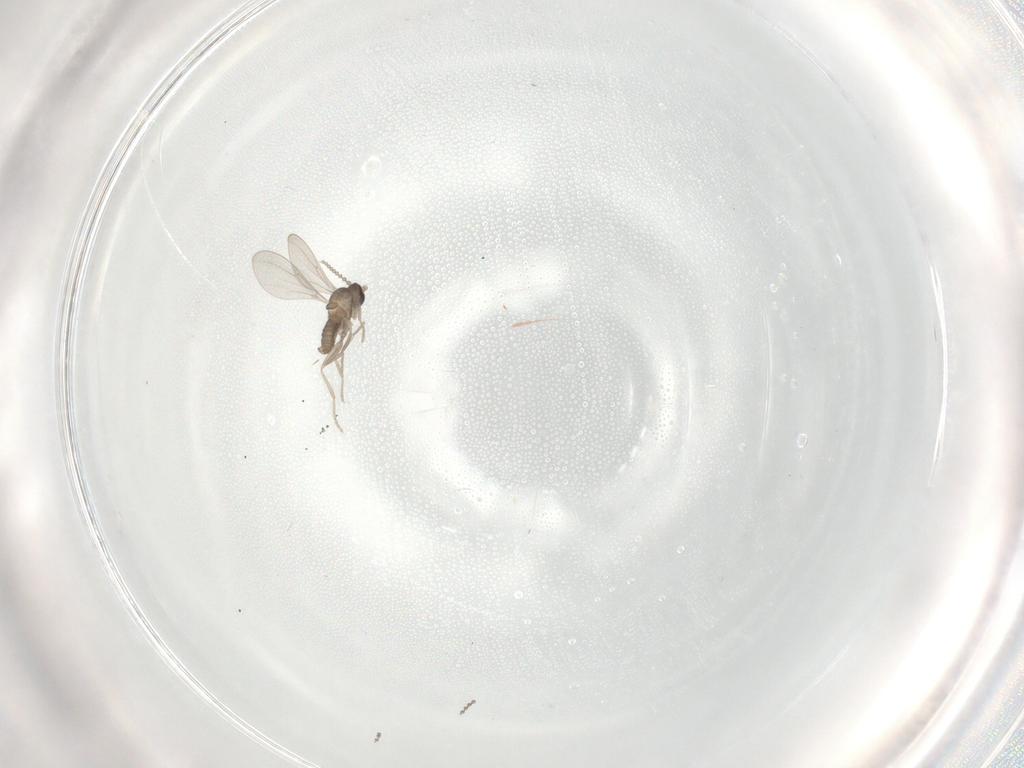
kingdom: Animalia
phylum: Arthropoda
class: Insecta
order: Diptera
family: Cecidomyiidae
